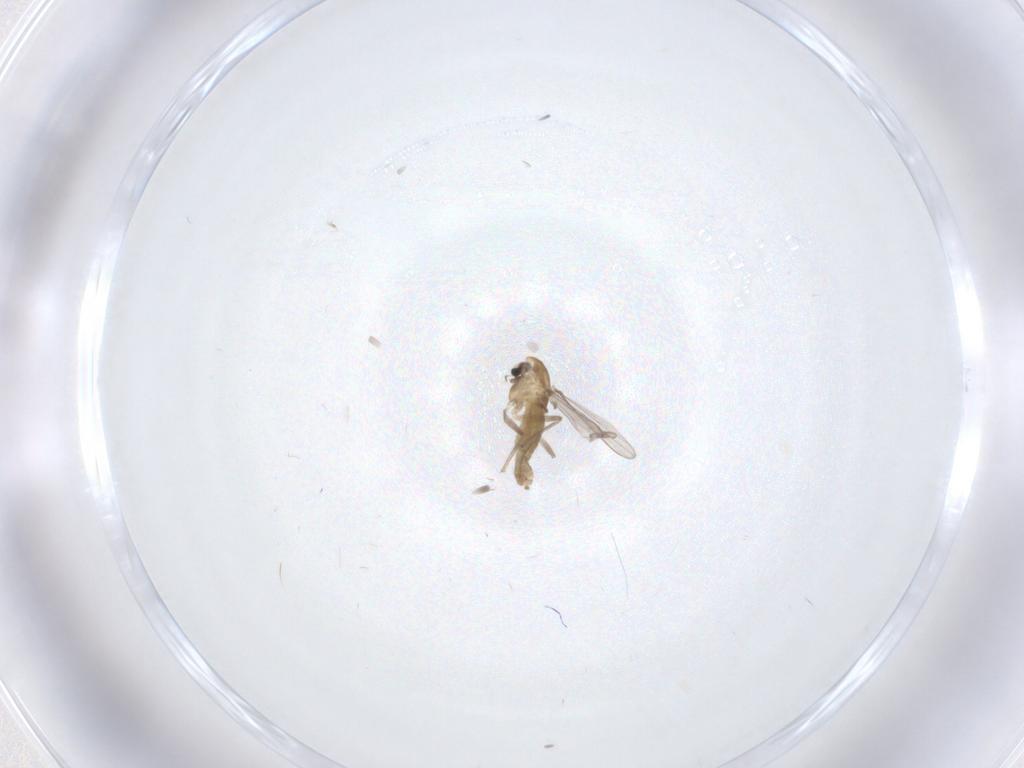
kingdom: Animalia
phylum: Arthropoda
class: Insecta
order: Diptera
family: Chironomidae
